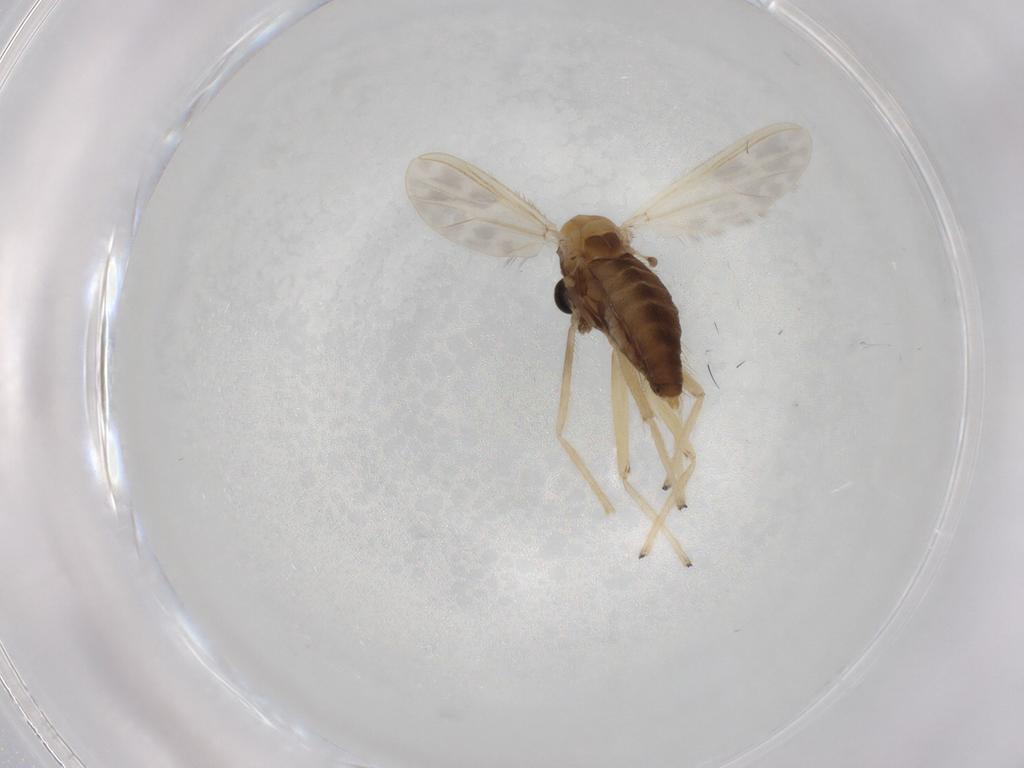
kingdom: Animalia
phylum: Arthropoda
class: Insecta
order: Diptera
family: Chironomidae
